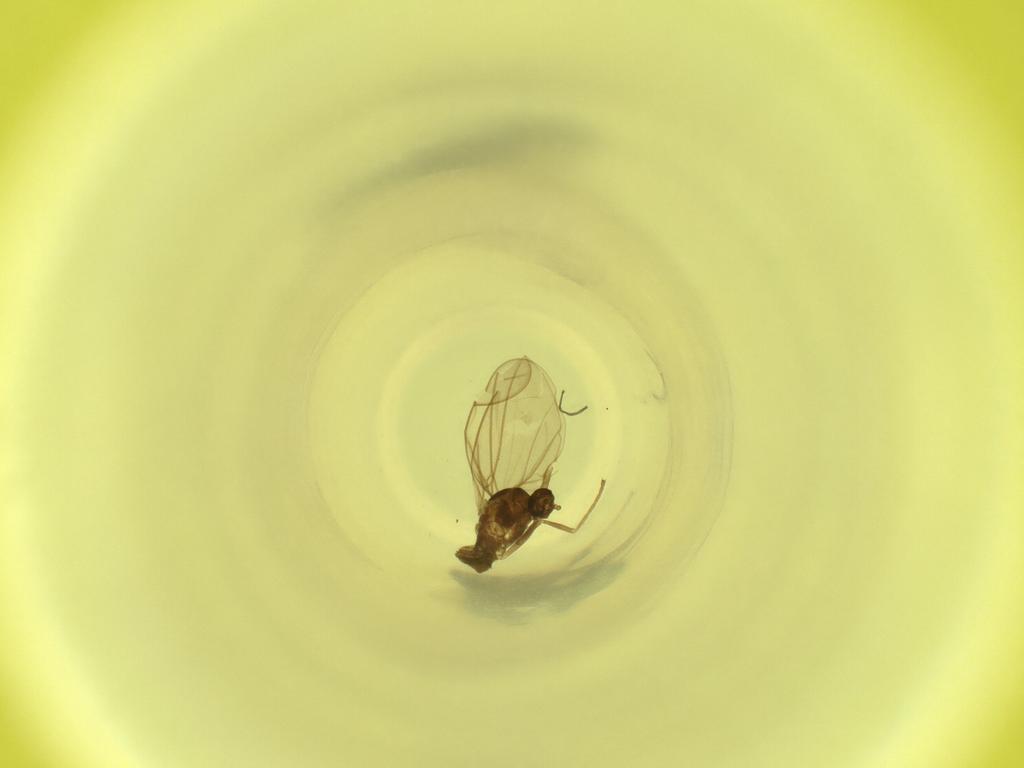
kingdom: Animalia
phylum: Arthropoda
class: Insecta
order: Diptera
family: Cecidomyiidae
